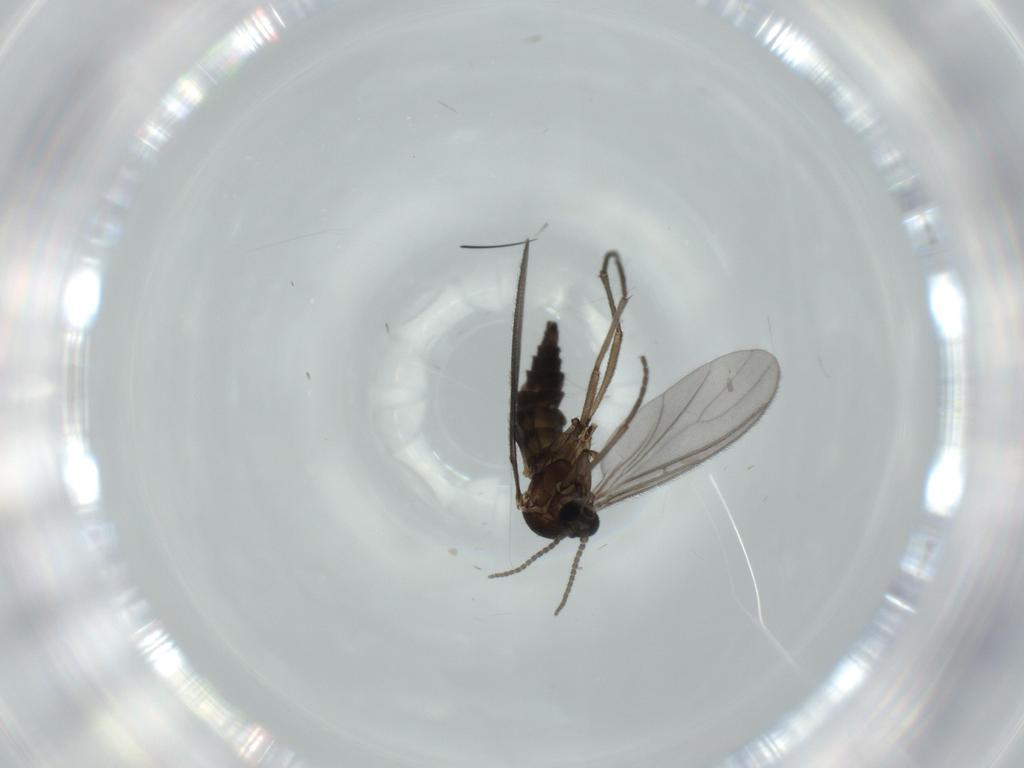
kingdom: Animalia
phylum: Arthropoda
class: Insecta
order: Diptera
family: Sciaridae
